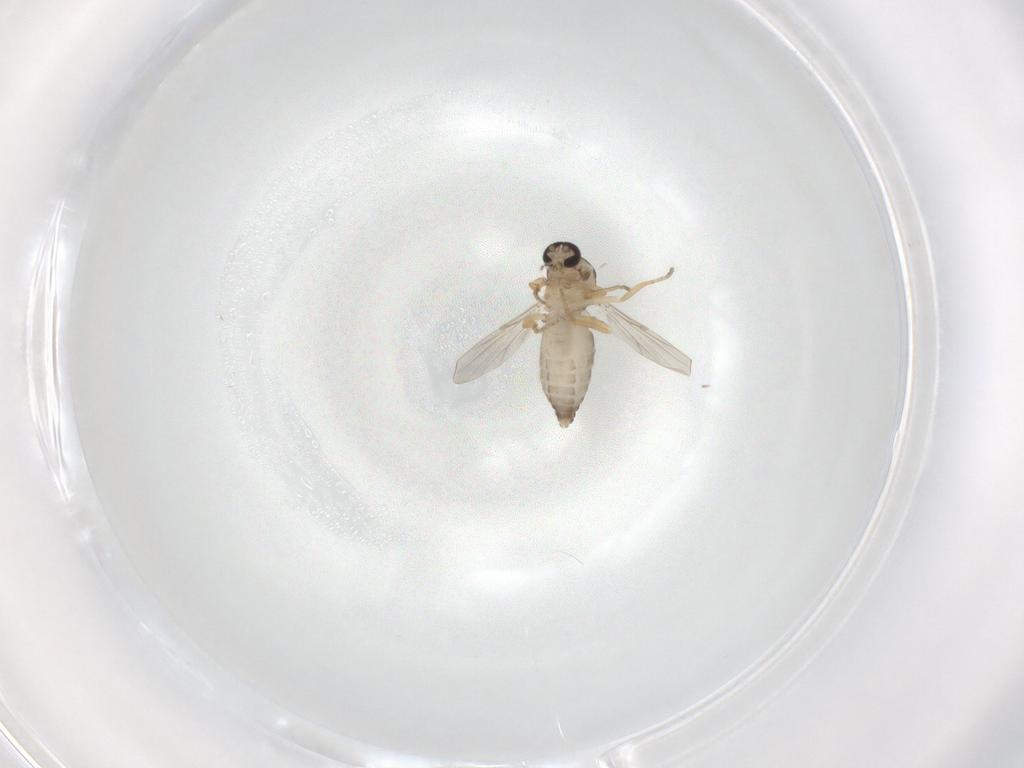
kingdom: Animalia
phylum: Arthropoda
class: Insecta
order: Diptera
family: Ceratopogonidae
